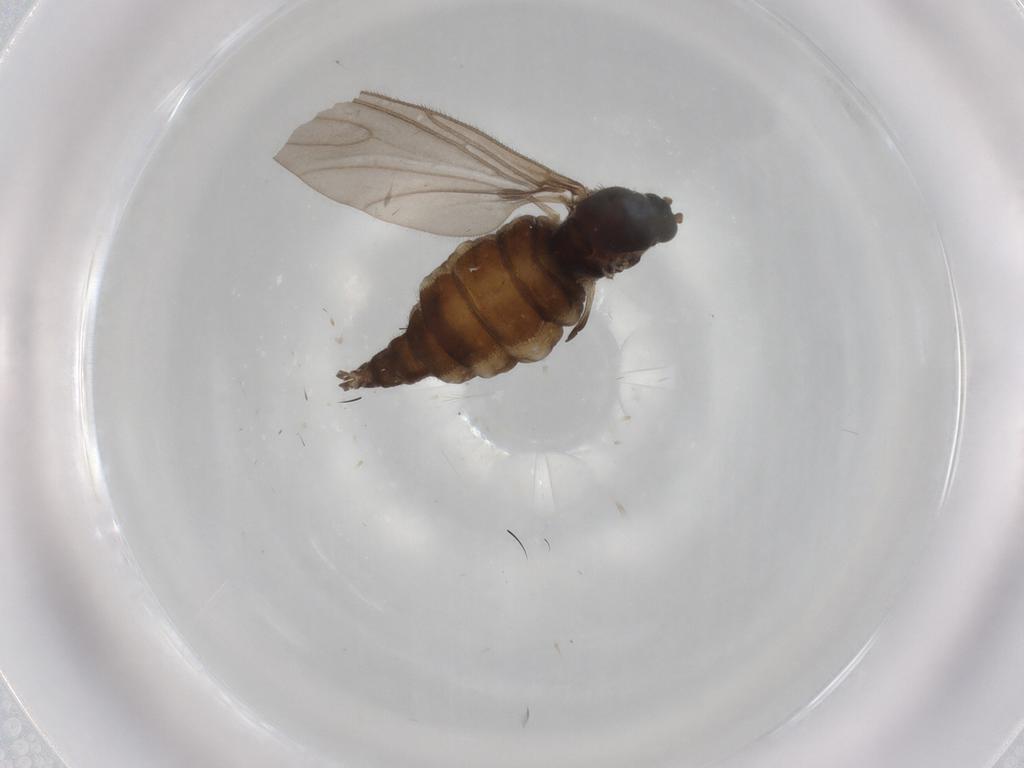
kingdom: Animalia
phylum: Arthropoda
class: Insecta
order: Diptera
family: Sciaridae
